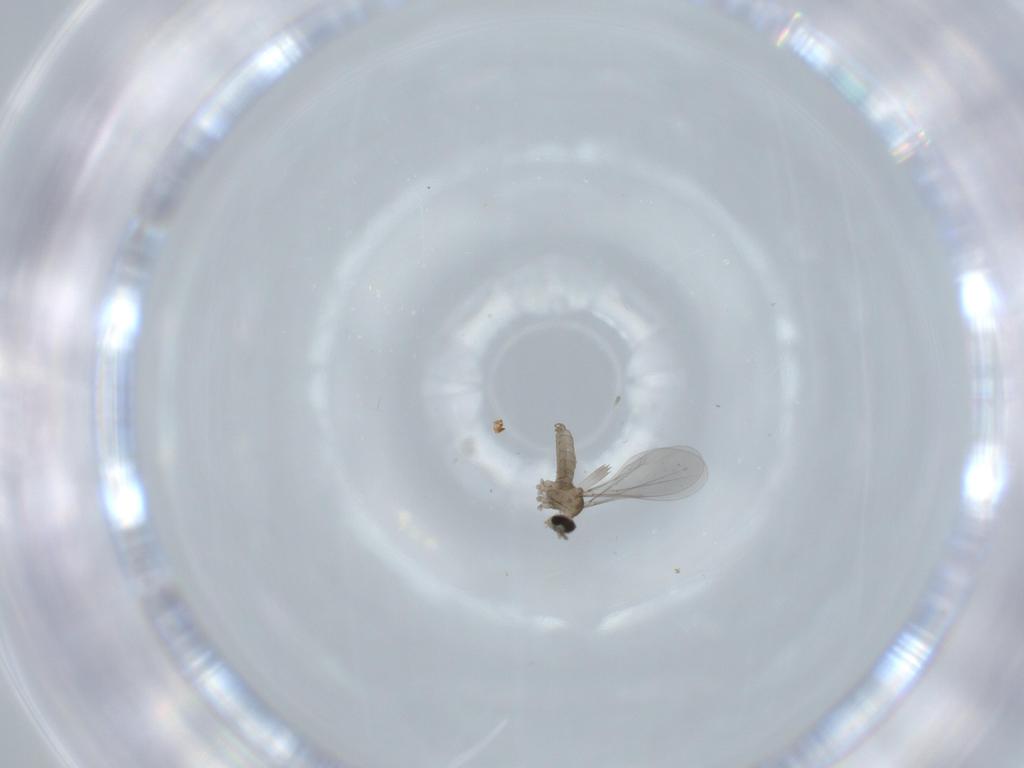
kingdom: Animalia
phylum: Arthropoda
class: Insecta
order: Diptera
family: Cecidomyiidae
